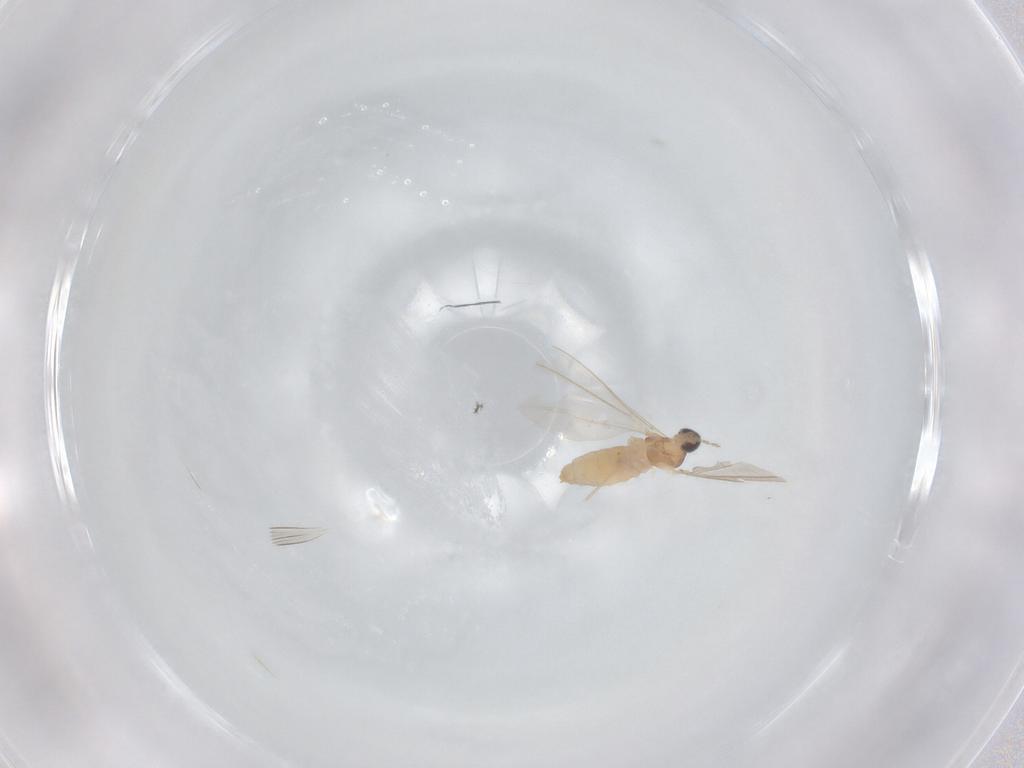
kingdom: Animalia
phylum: Arthropoda
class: Insecta
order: Diptera
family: Cecidomyiidae
